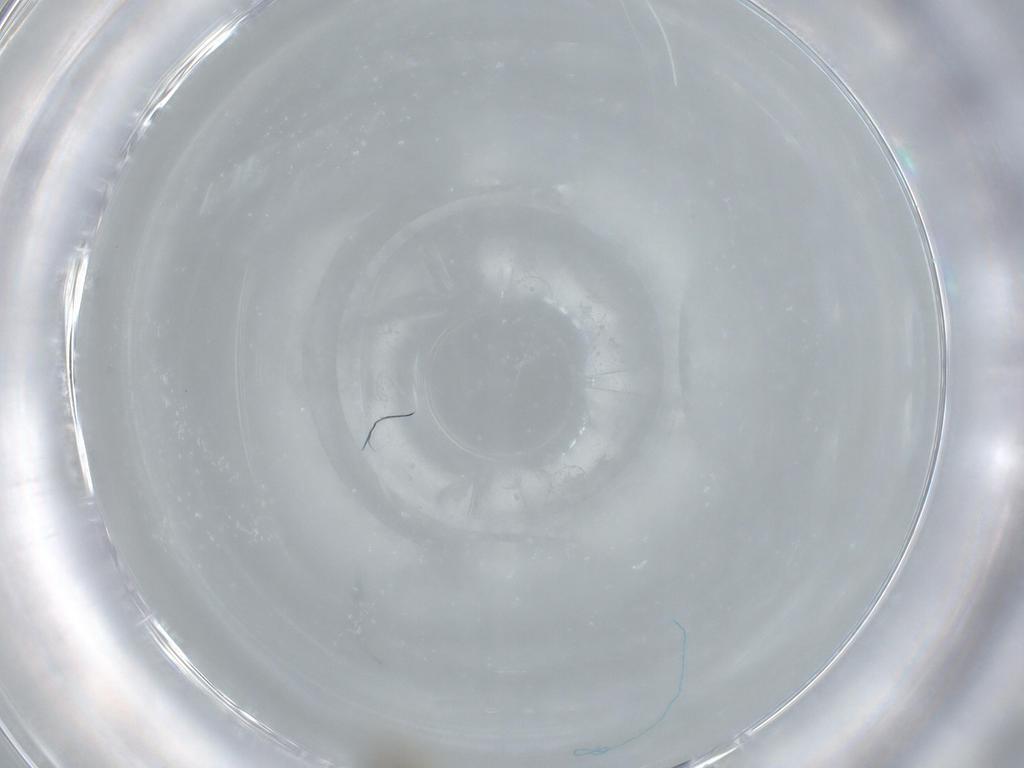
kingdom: Animalia
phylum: Arthropoda
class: Insecta
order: Diptera
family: Cecidomyiidae
